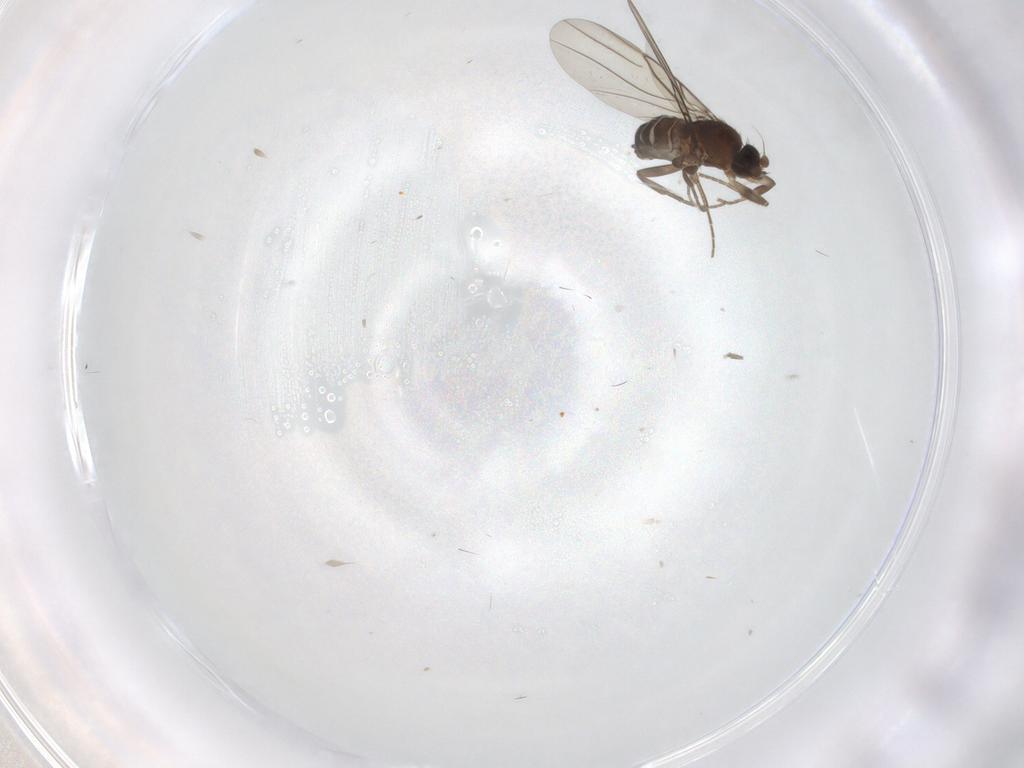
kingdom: Animalia
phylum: Arthropoda
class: Insecta
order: Diptera
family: Phoridae
